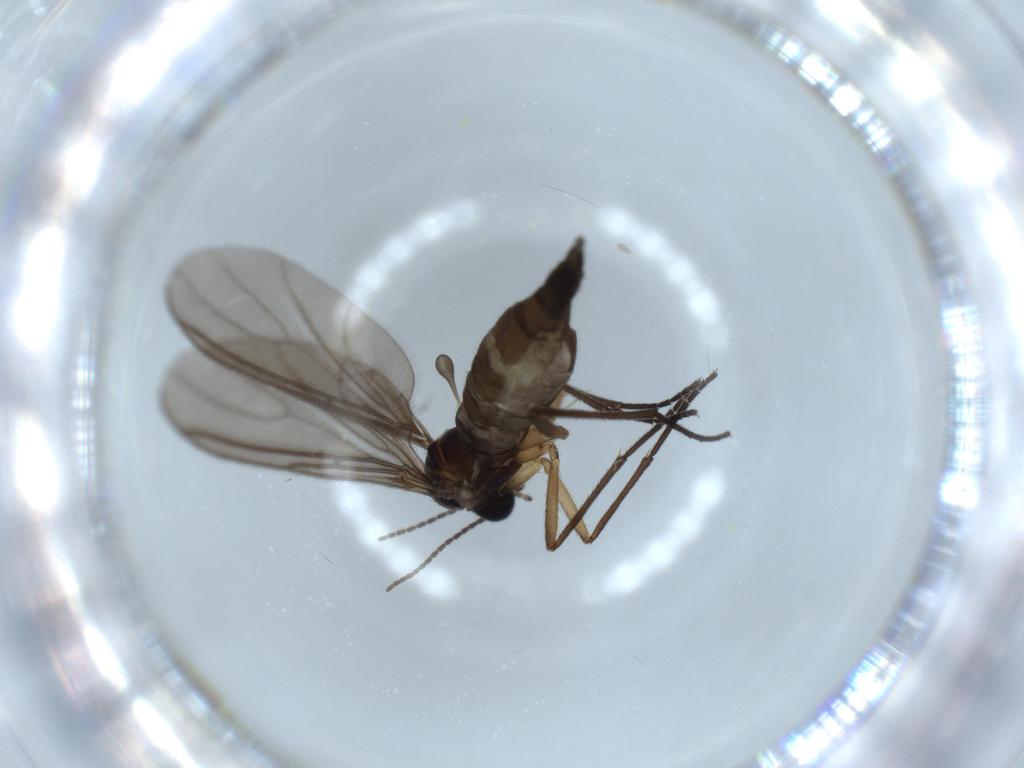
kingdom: Animalia
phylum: Arthropoda
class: Insecta
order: Diptera
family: Sciaridae
